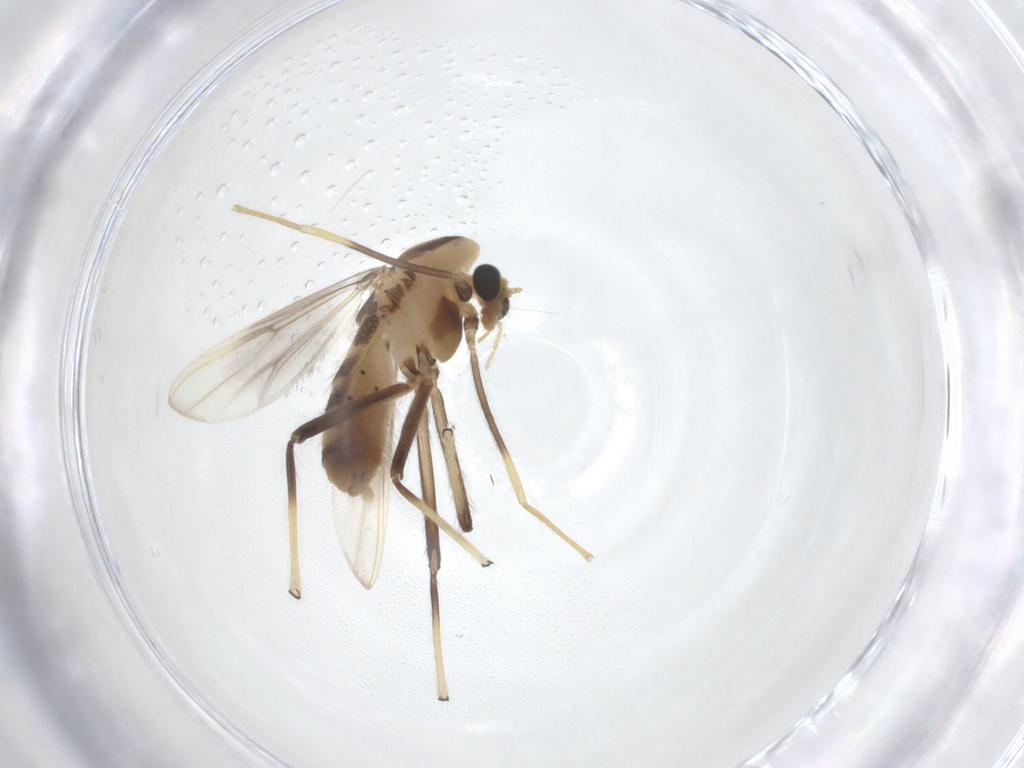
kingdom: Animalia
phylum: Arthropoda
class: Insecta
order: Diptera
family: Chironomidae
